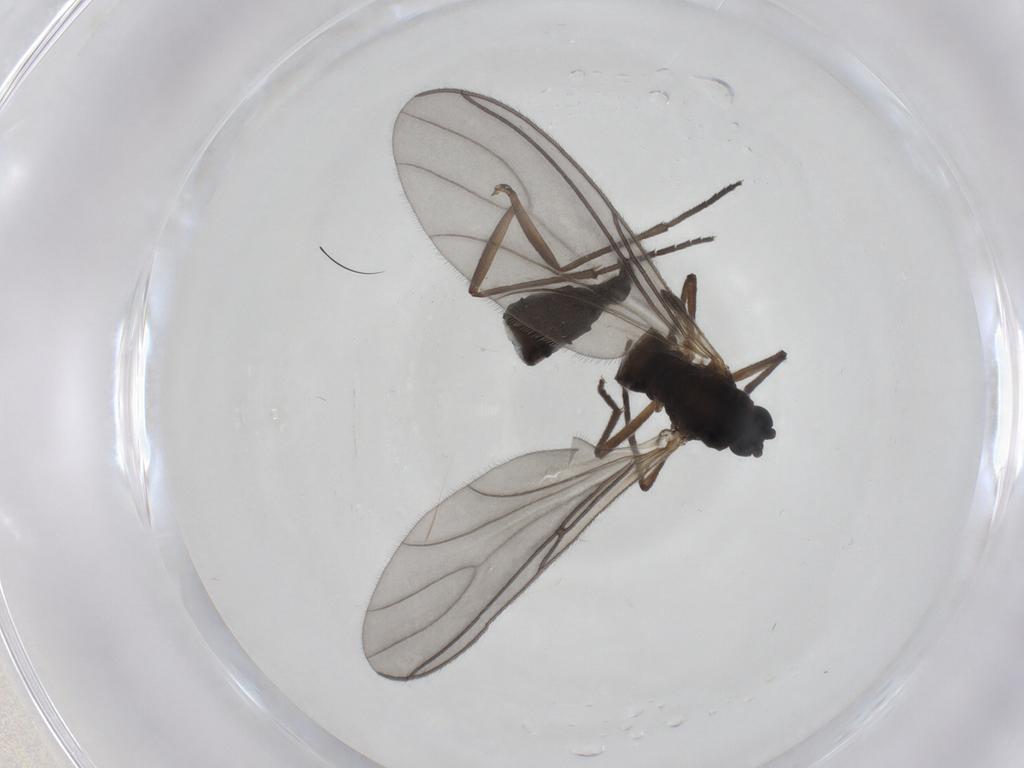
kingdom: Animalia
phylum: Arthropoda
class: Insecta
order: Diptera
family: Sciaridae
